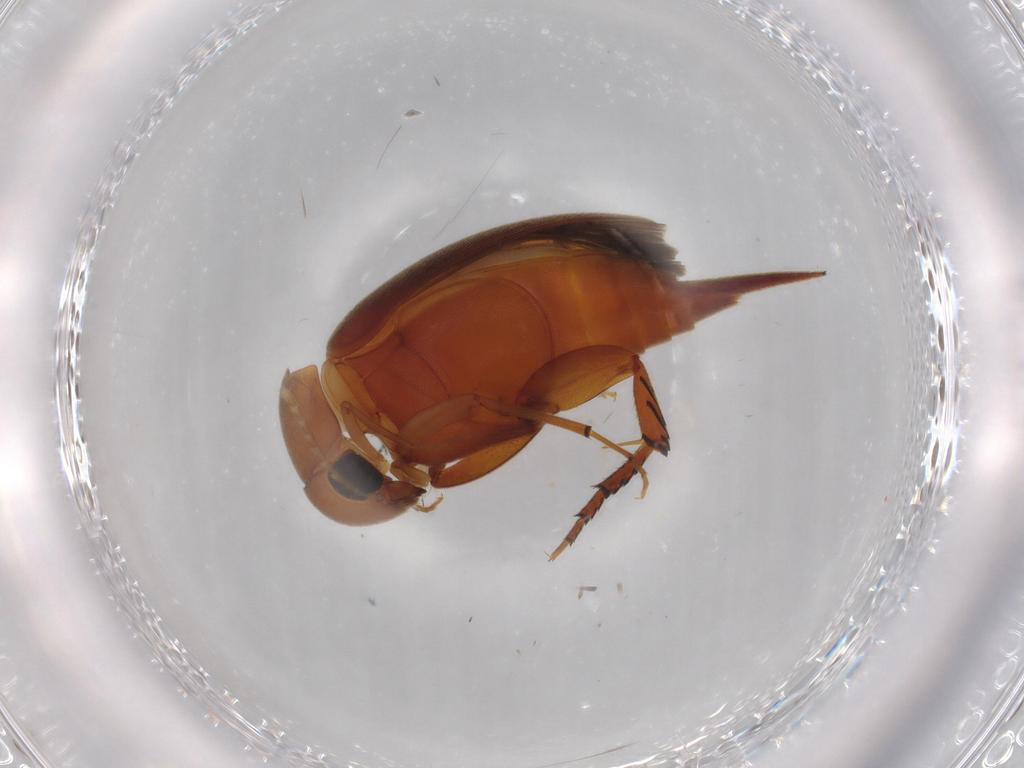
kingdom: Animalia
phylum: Arthropoda
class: Insecta
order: Coleoptera
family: Mordellidae
